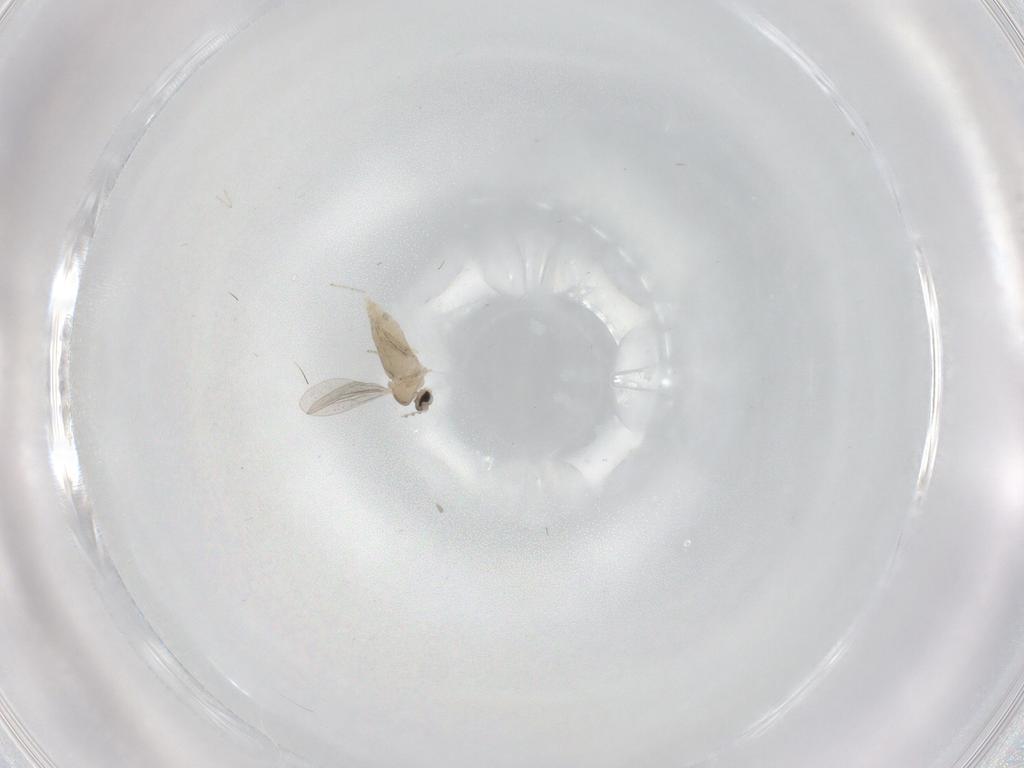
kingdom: Animalia
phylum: Arthropoda
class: Insecta
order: Diptera
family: Cecidomyiidae
